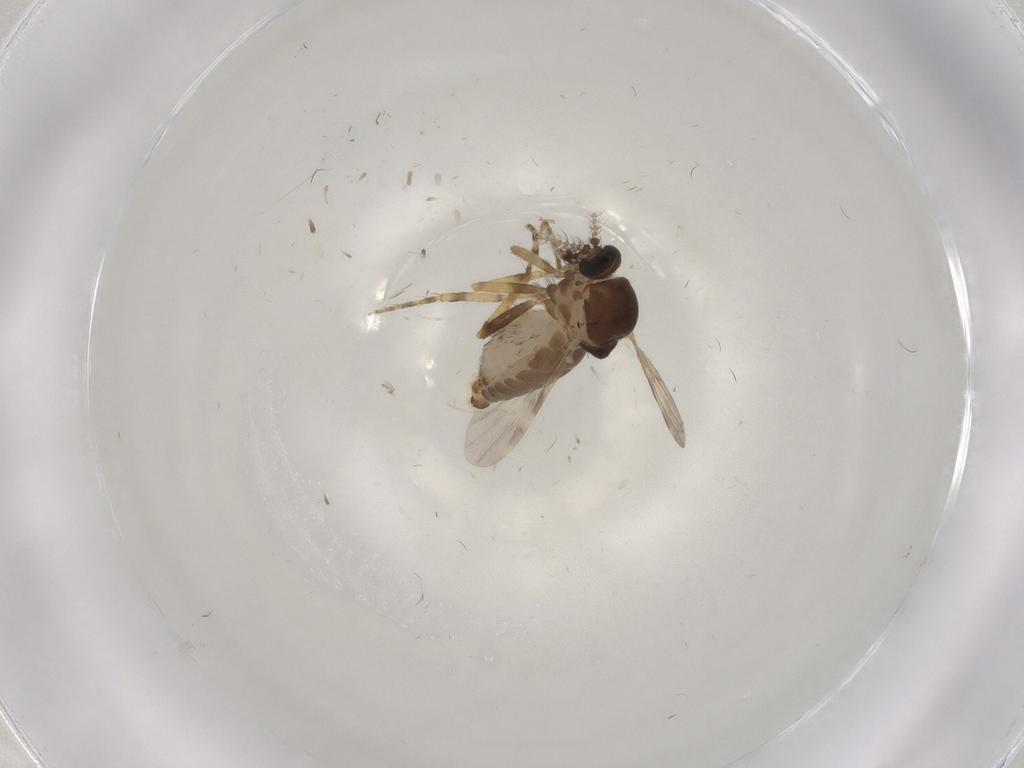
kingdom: Animalia
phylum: Arthropoda
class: Insecta
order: Diptera
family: Ceratopogonidae
